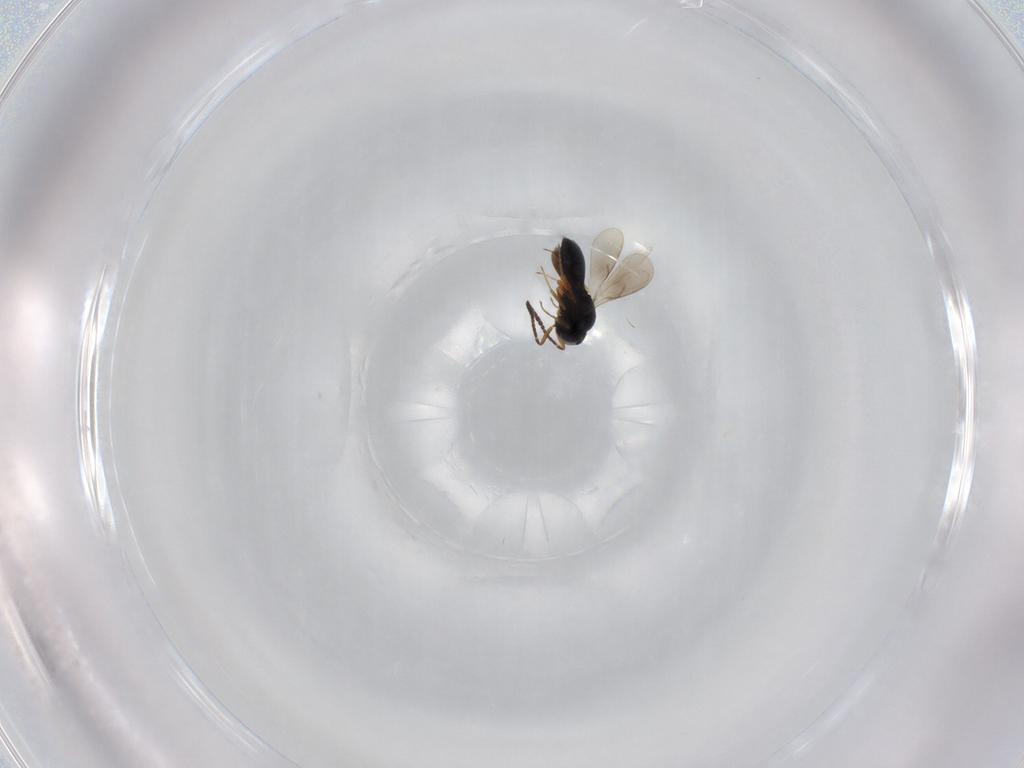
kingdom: Animalia
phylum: Arthropoda
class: Insecta
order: Hymenoptera
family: Scelionidae
